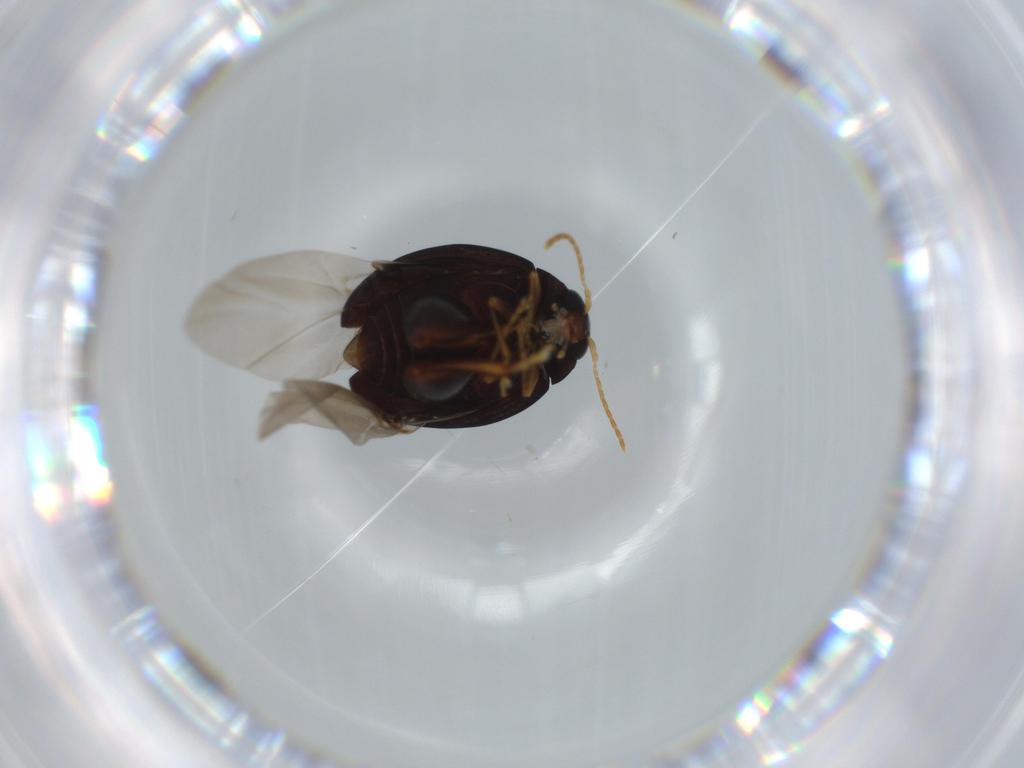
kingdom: Animalia
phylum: Arthropoda
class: Insecta
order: Coleoptera
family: Chrysomelidae
